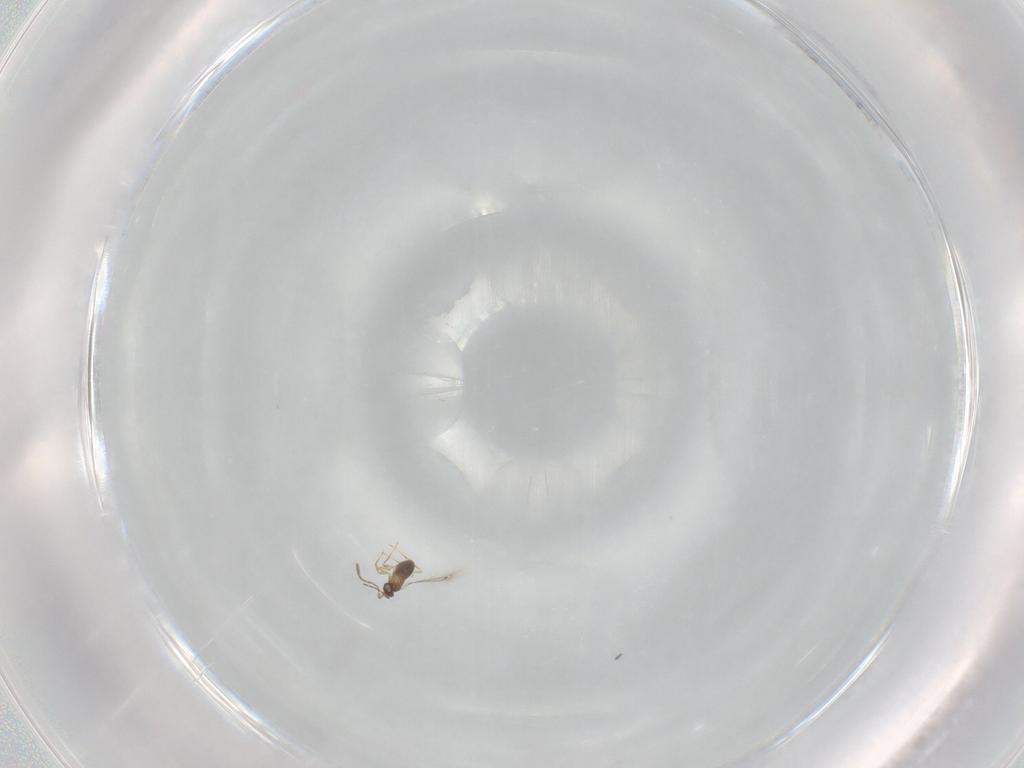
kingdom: Animalia
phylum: Arthropoda
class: Insecta
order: Hymenoptera
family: Mymaridae
